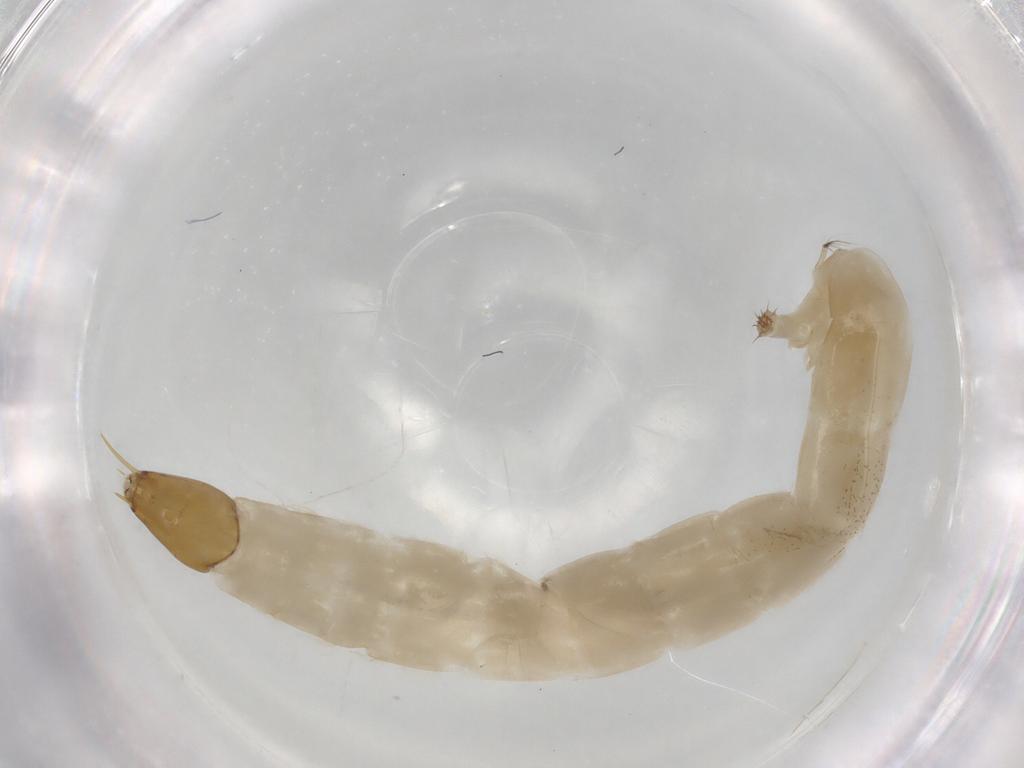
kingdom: Animalia
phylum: Arthropoda
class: Insecta
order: Diptera
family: Chironomidae
